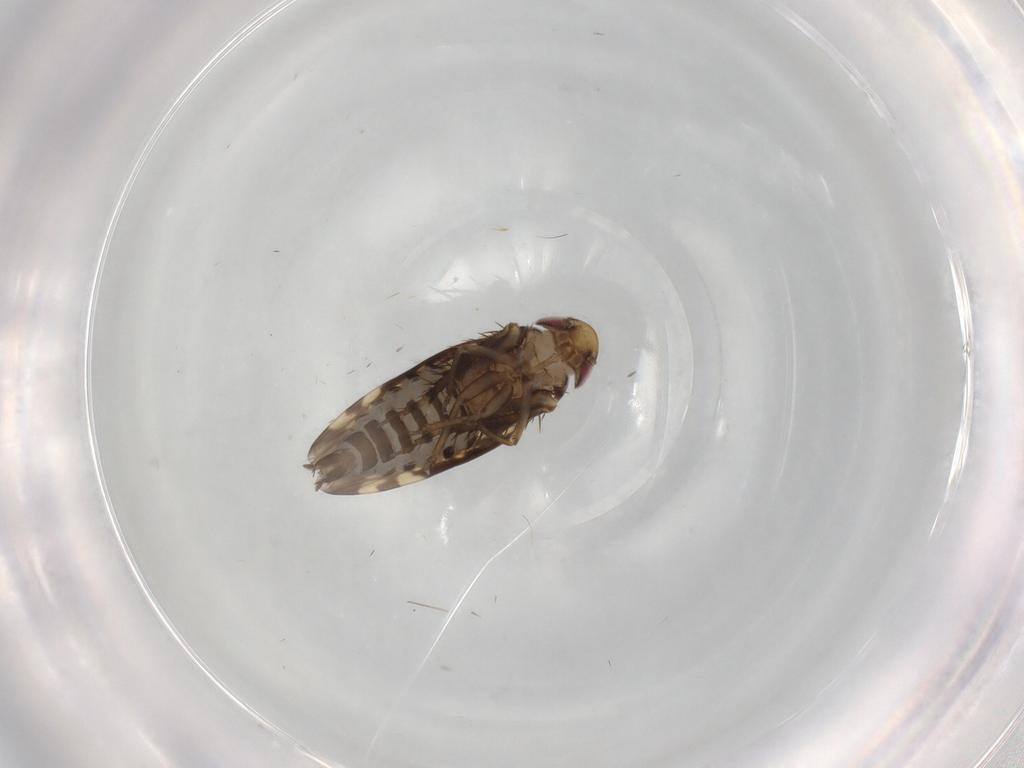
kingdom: Animalia
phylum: Arthropoda
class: Insecta
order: Hemiptera
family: Cicadellidae
